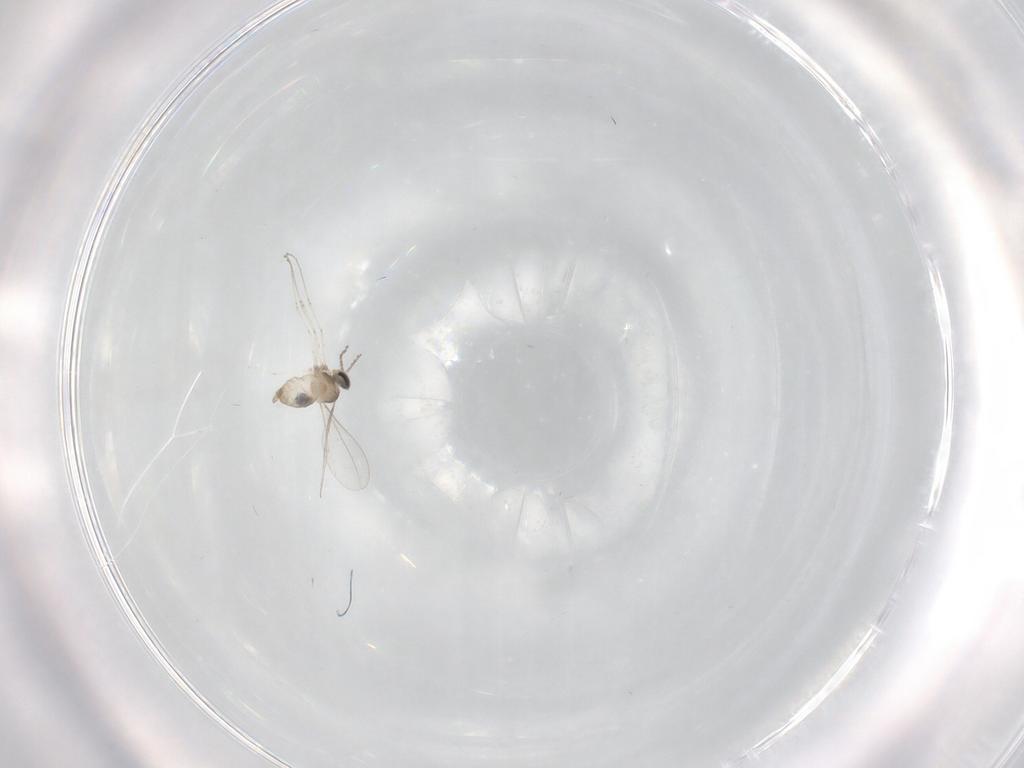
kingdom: Animalia
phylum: Arthropoda
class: Insecta
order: Diptera
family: Cecidomyiidae
